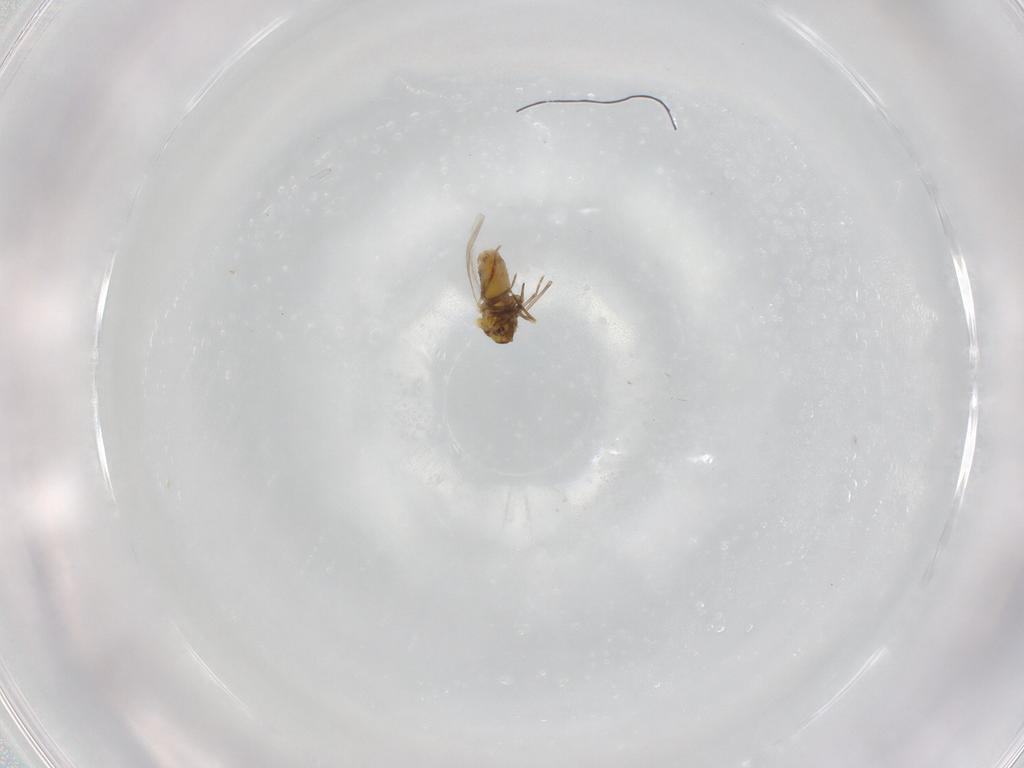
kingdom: Animalia
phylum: Arthropoda
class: Insecta
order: Hemiptera
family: Aleyrodidae
